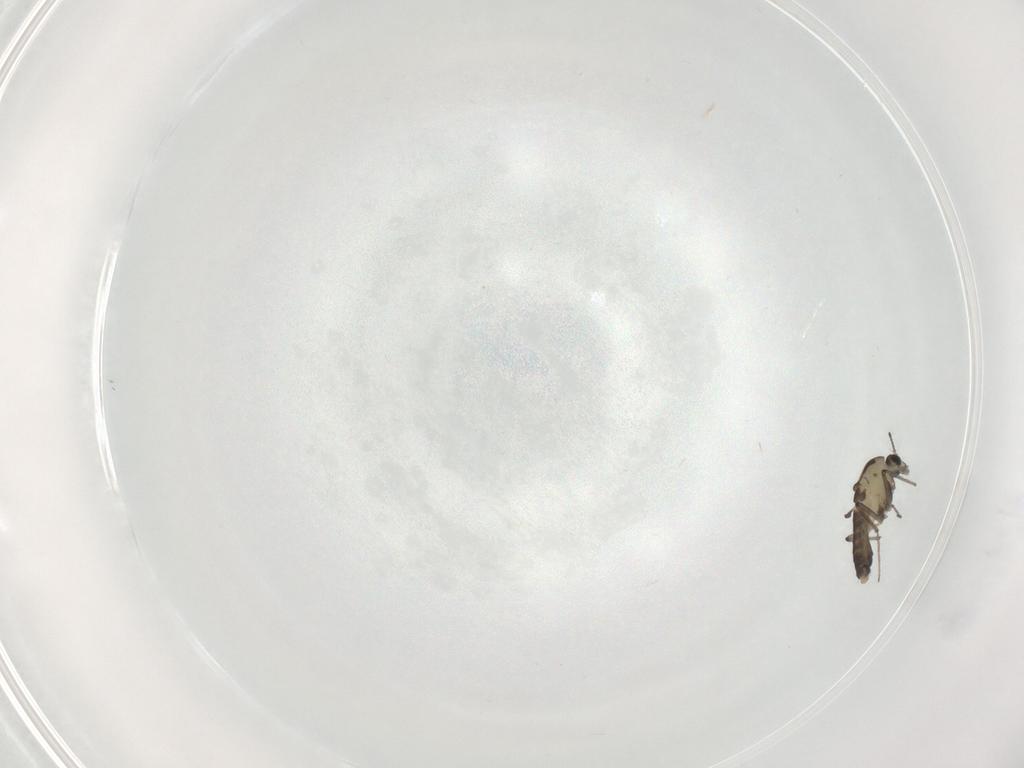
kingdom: Animalia
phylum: Arthropoda
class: Insecta
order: Diptera
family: Chironomidae
